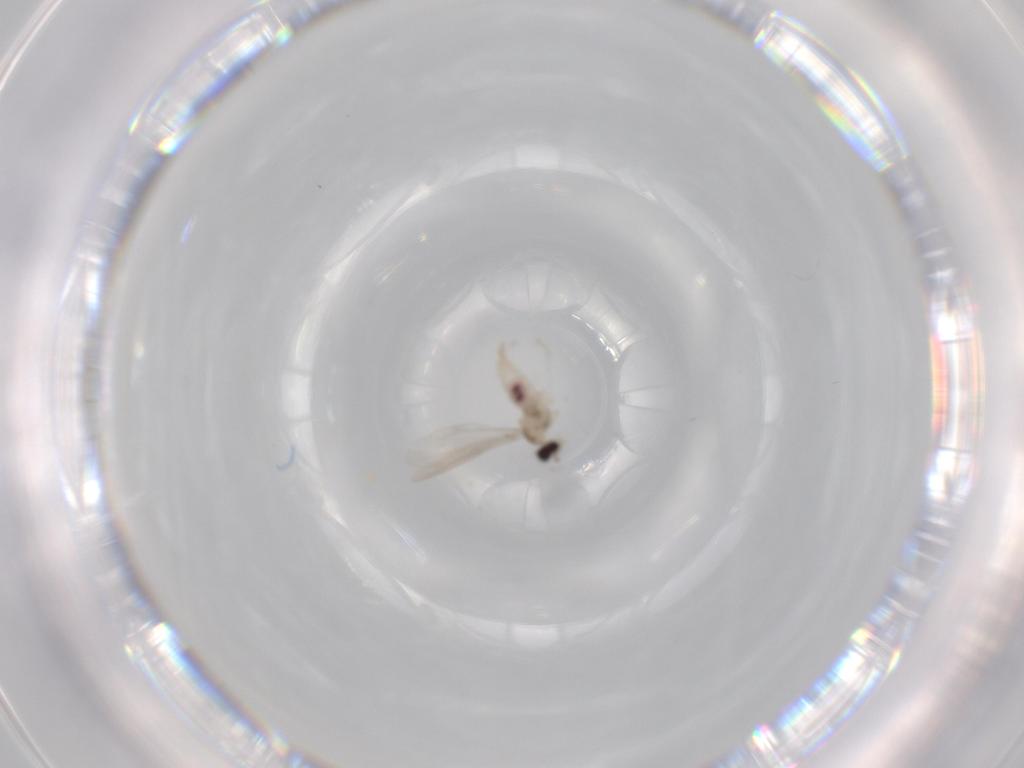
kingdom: Animalia
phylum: Arthropoda
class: Insecta
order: Diptera
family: Cecidomyiidae
